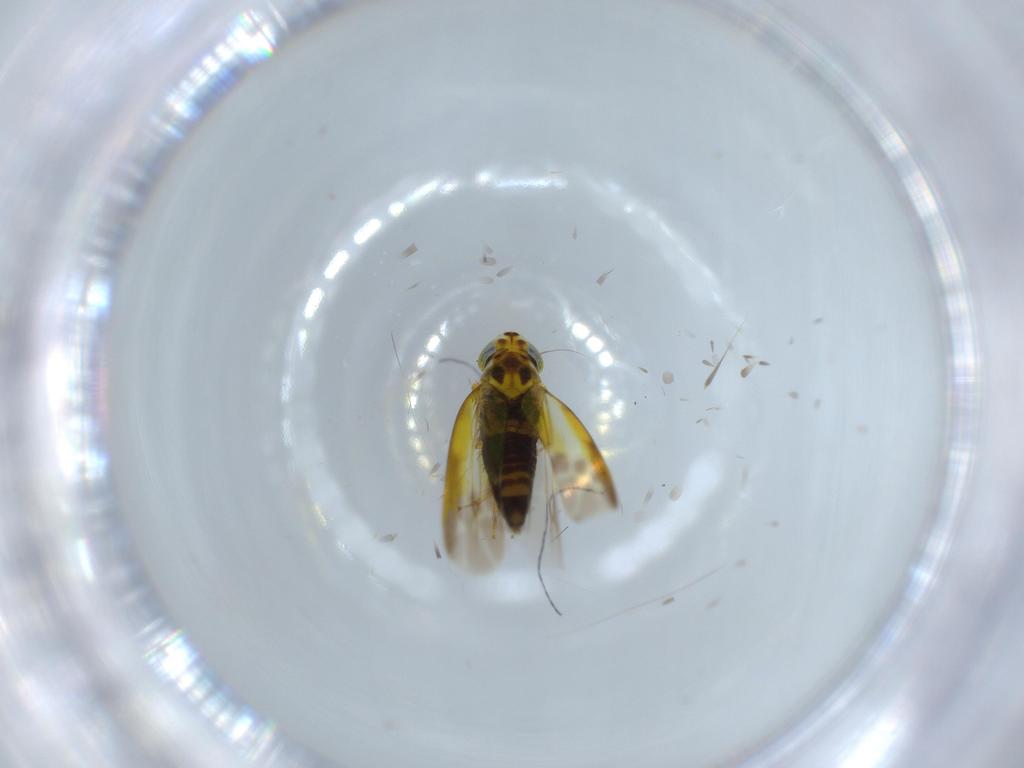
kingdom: Animalia
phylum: Arthropoda
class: Insecta
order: Hemiptera
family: Cicadellidae
